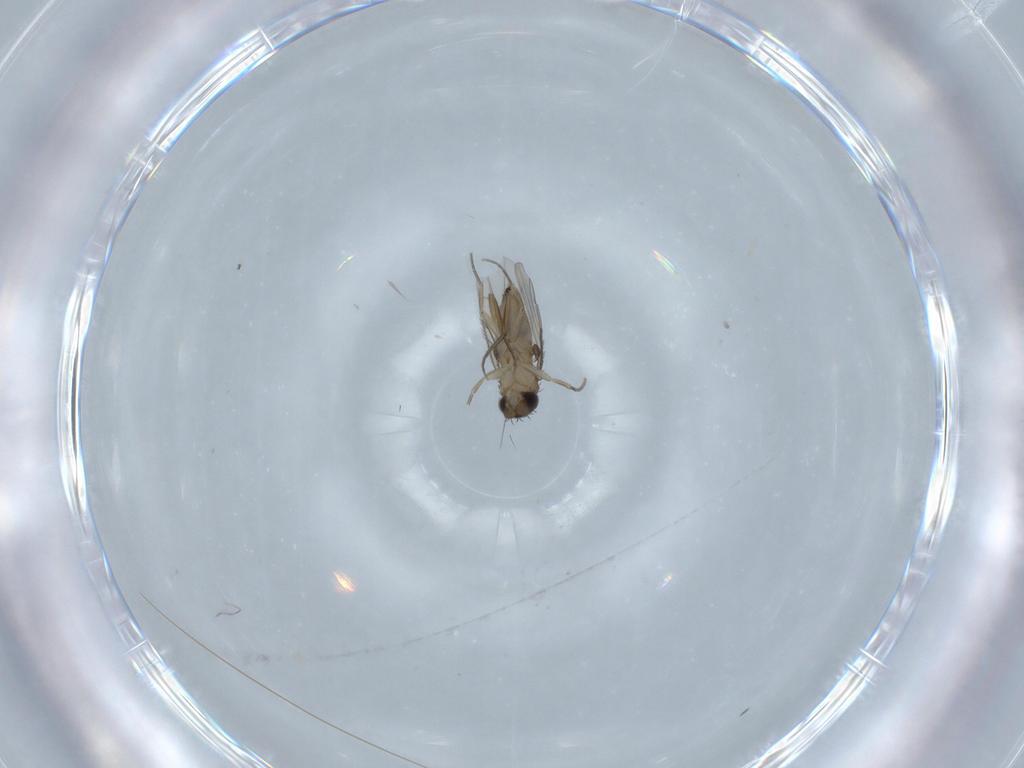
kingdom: Animalia
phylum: Arthropoda
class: Insecta
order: Diptera
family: Phoridae
